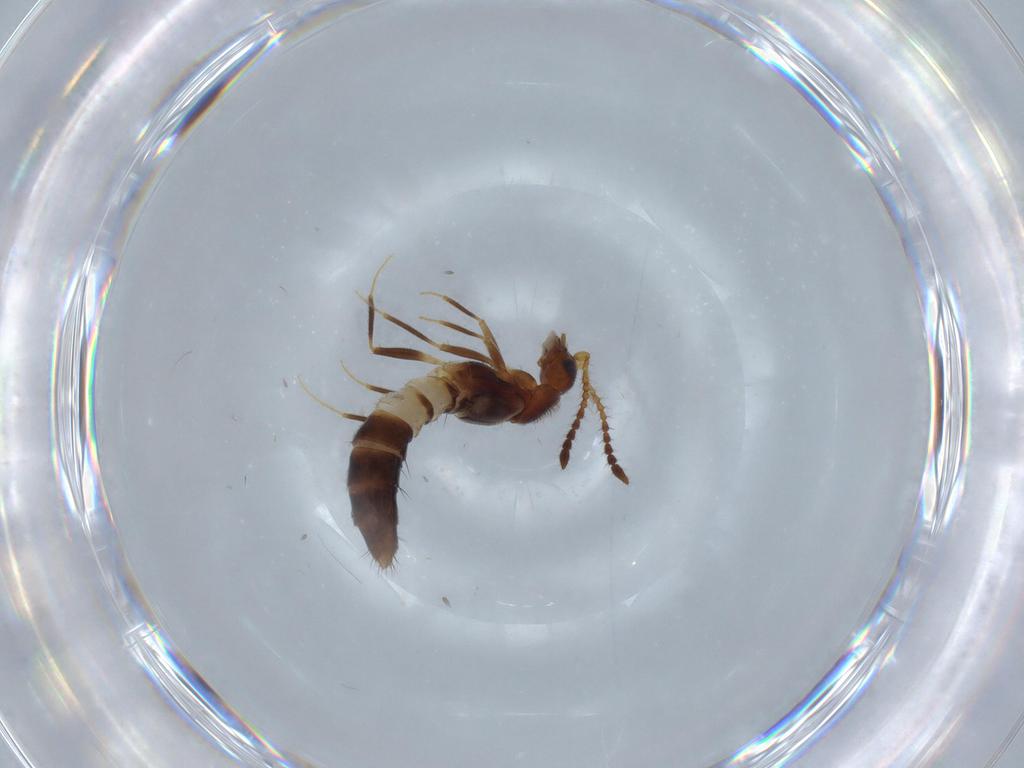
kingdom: Animalia
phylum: Arthropoda
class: Insecta
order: Coleoptera
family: Staphylinidae
